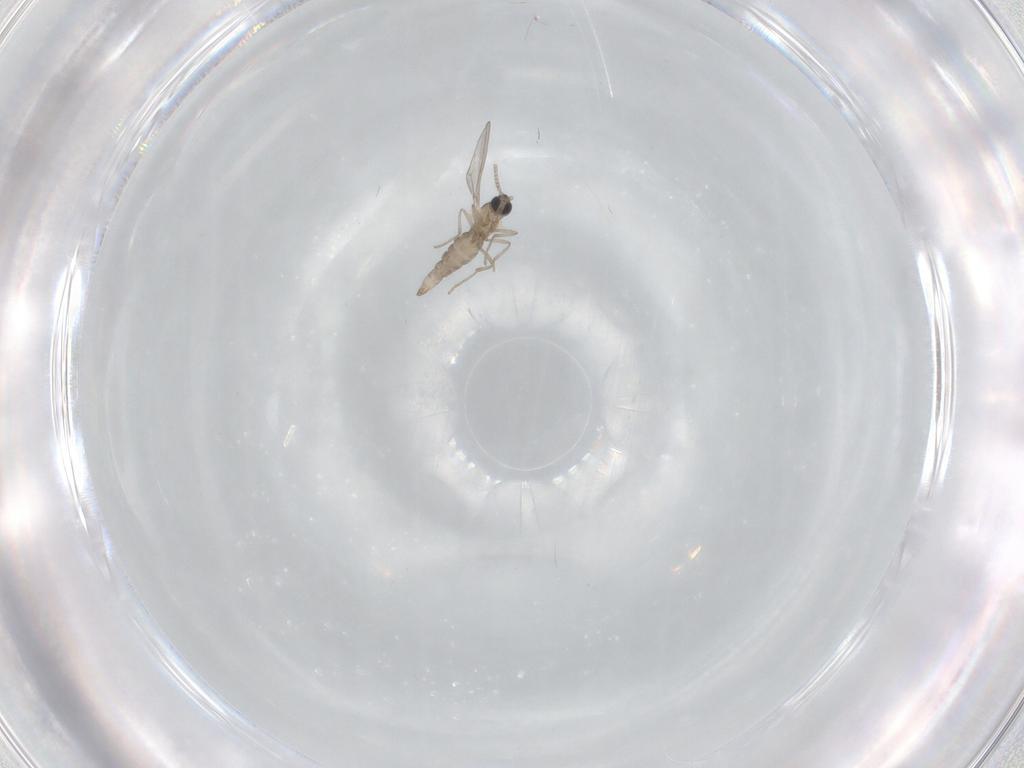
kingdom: Animalia
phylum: Arthropoda
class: Insecta
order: Diptera
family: Cecidomyiidae
